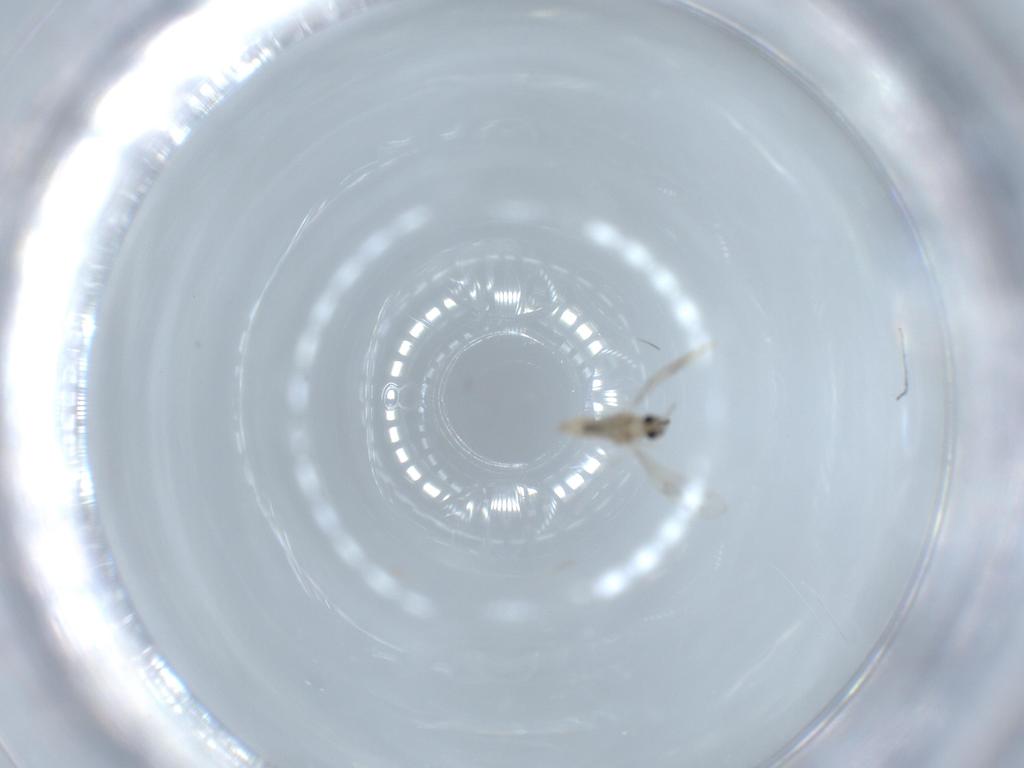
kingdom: Animalia
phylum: Arthropoda
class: Insecta
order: Diptera
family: Cecidomyiidae
